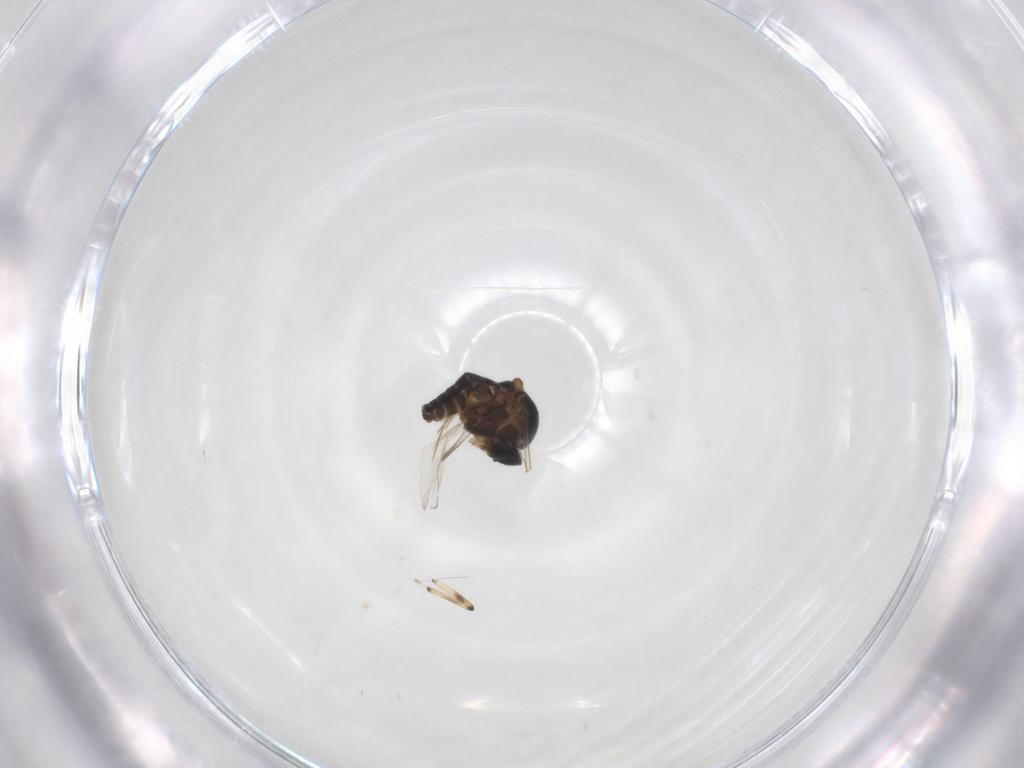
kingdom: Animalia
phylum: Arthropoda
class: Insecta
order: Diptera
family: Ceratopogonidae
